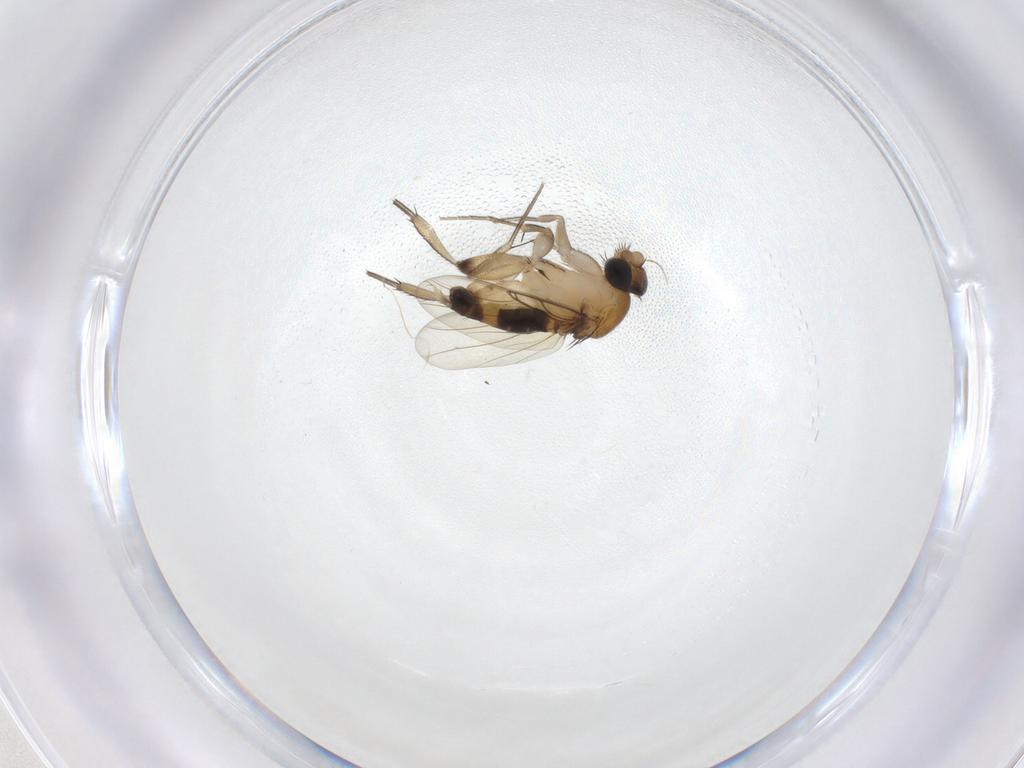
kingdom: Animalia
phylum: Arthropoda
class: Insecta
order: Diptera
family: Phoridae
